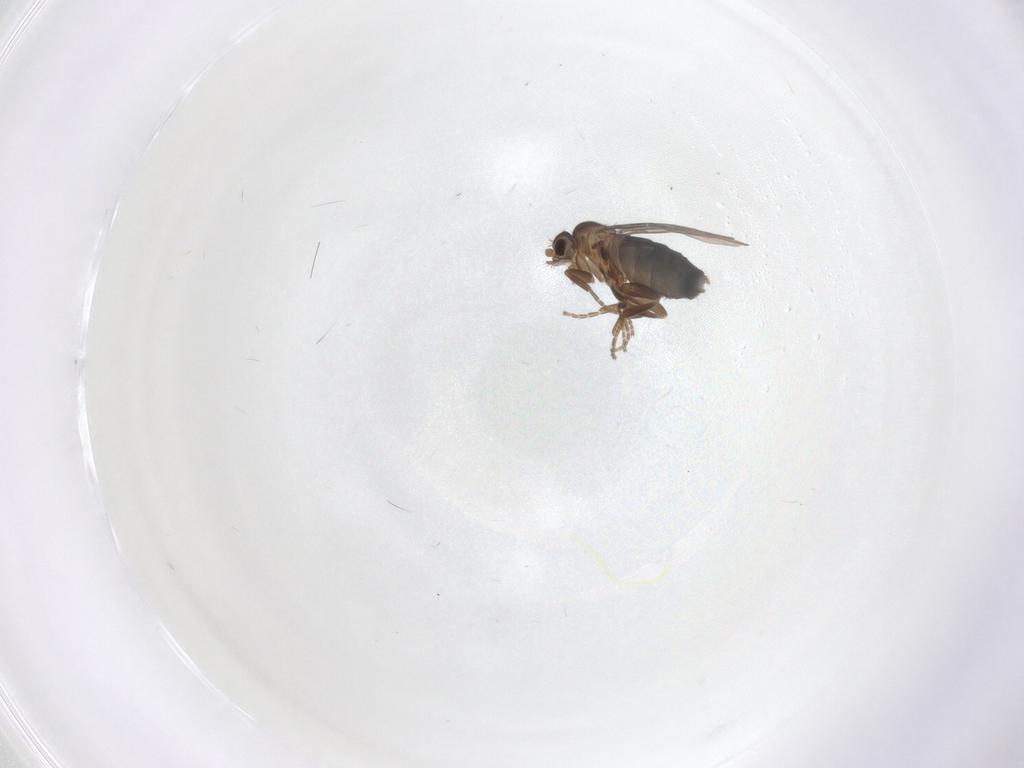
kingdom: Animalia
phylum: Arthropoda
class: Insecta
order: Diptera
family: Phoridae
